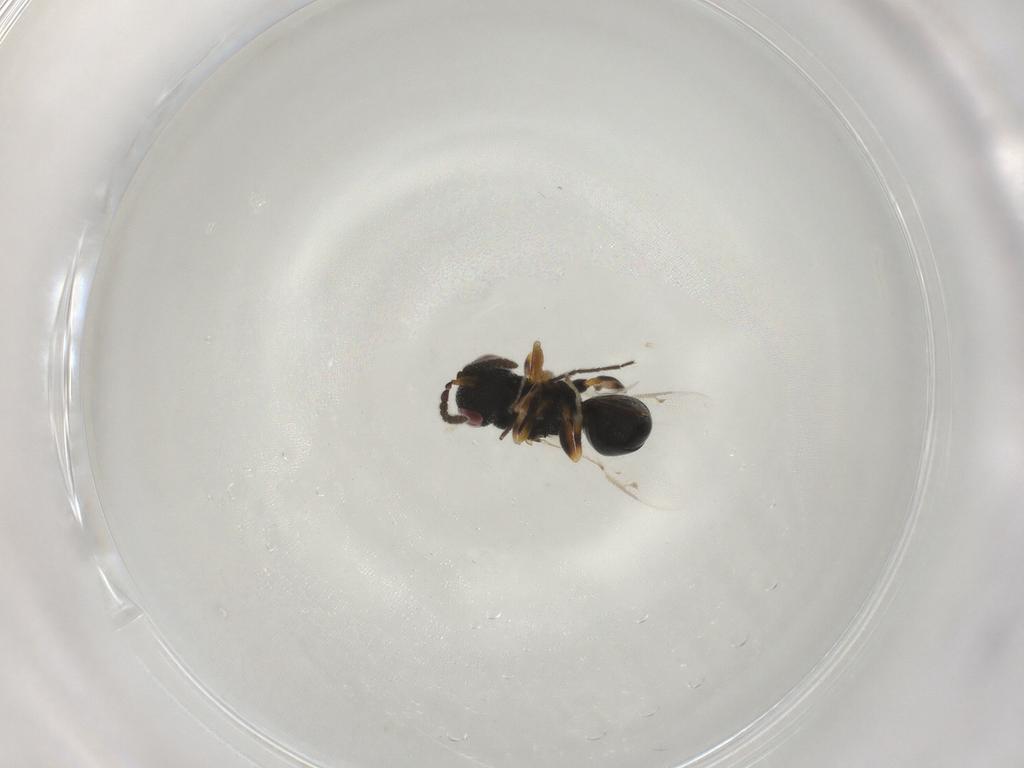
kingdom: Animalia
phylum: Arthropoda
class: Insecta
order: Hymenoptera
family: Eurytomidae
